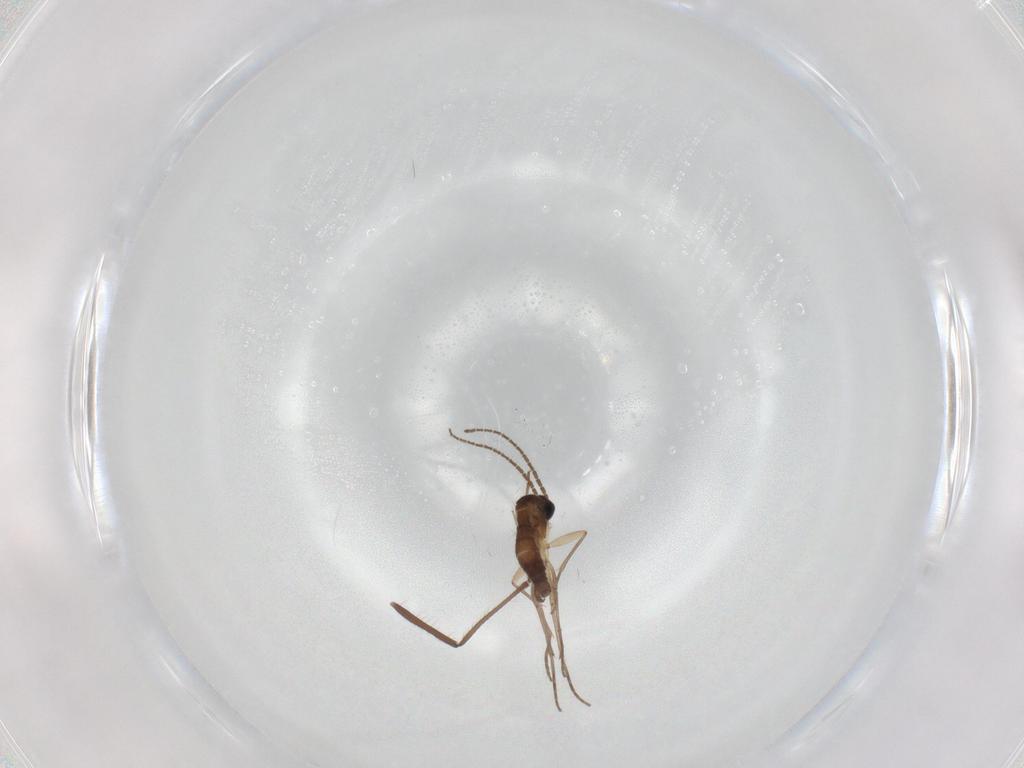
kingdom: Animalia
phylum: Arthropoda
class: Insecta
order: Diptera
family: Sciaridae
